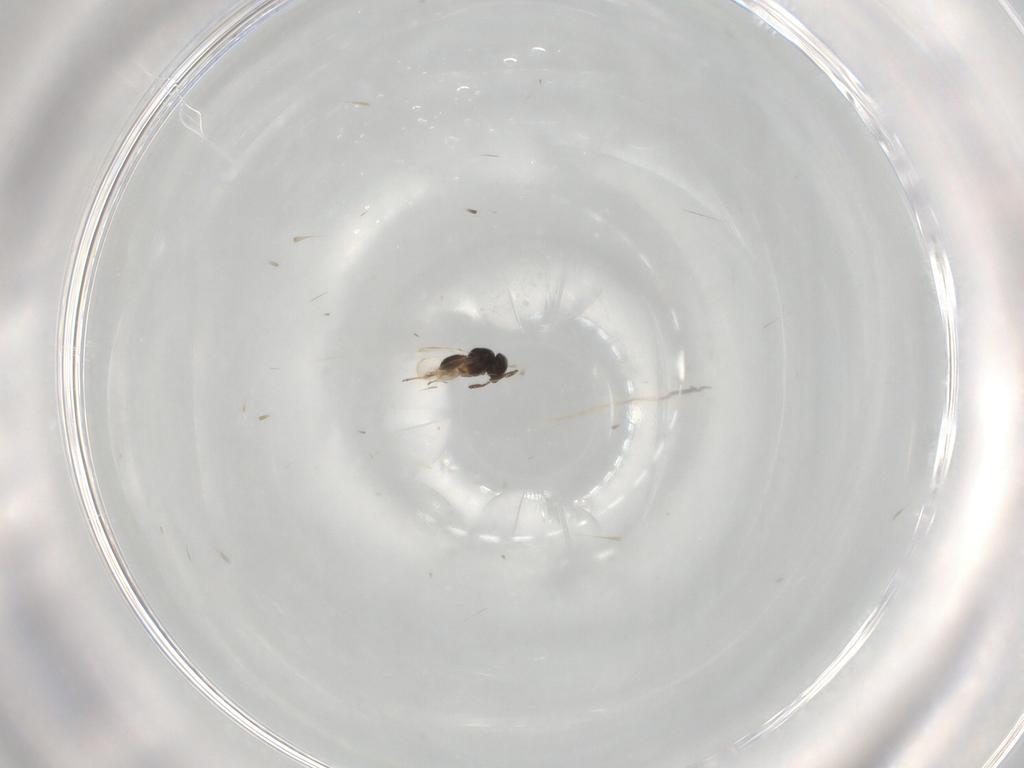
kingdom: Animalia
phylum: Arthropoda
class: Insecta
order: Hymenoptera
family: Scelionidae
